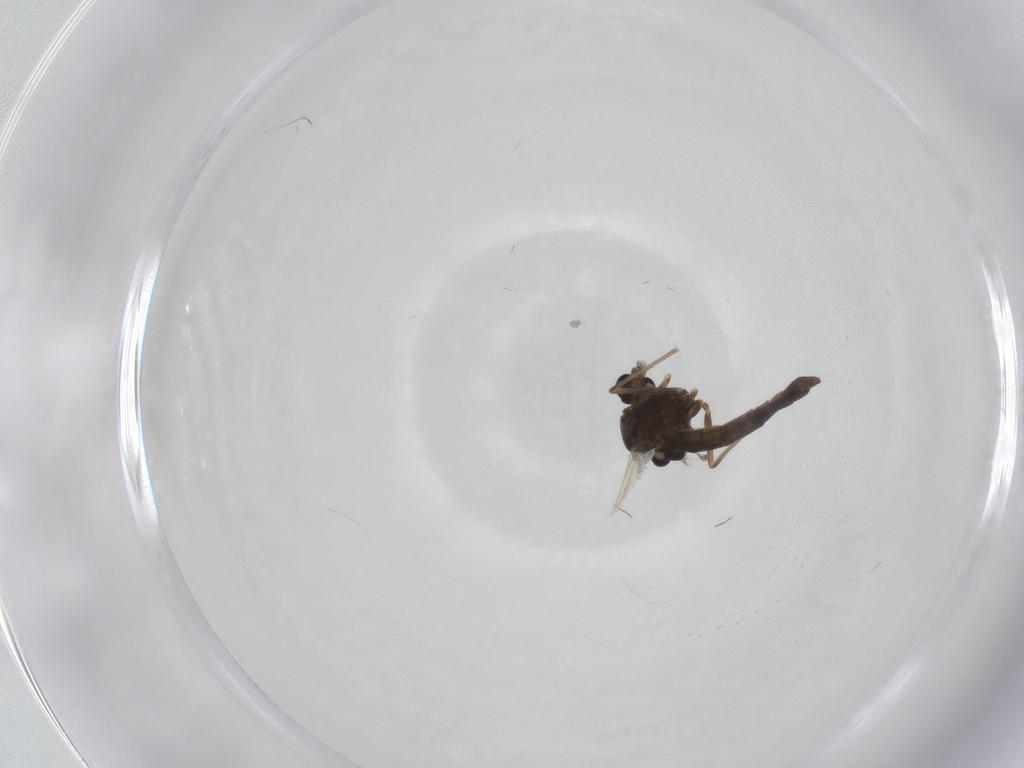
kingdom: Animalia
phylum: Arthropoda
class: Insecta
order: Diptera
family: Chironomidae
